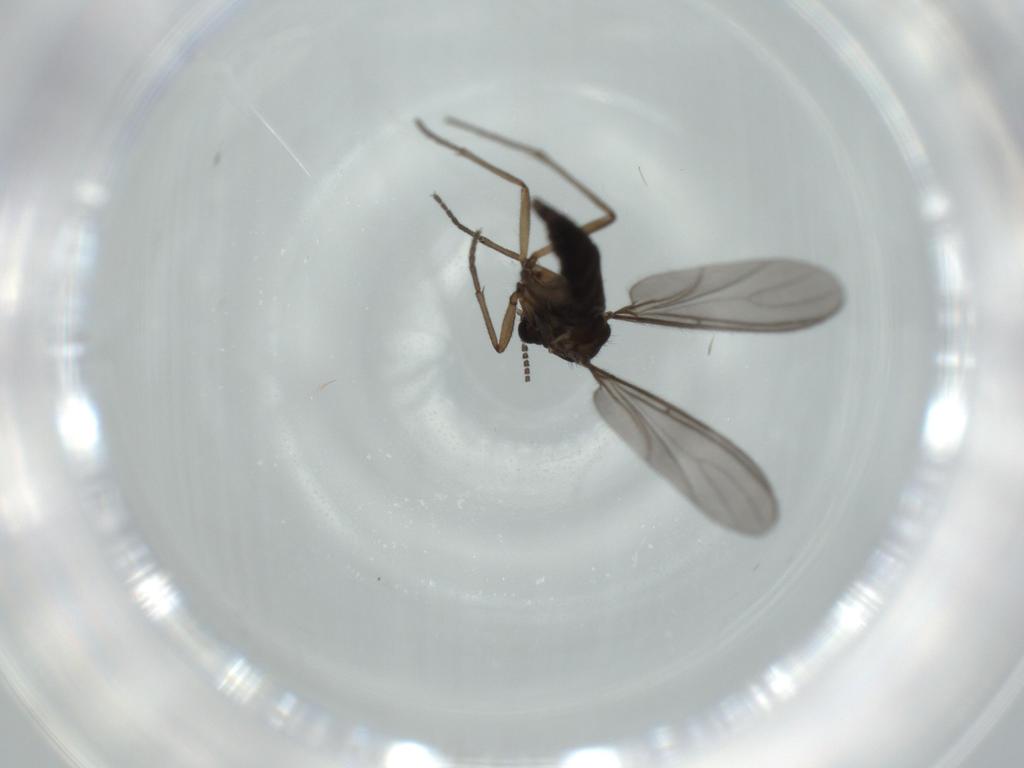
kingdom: Animalia
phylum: Arthropoda
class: Insecta
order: Diptera
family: Sciaridae
